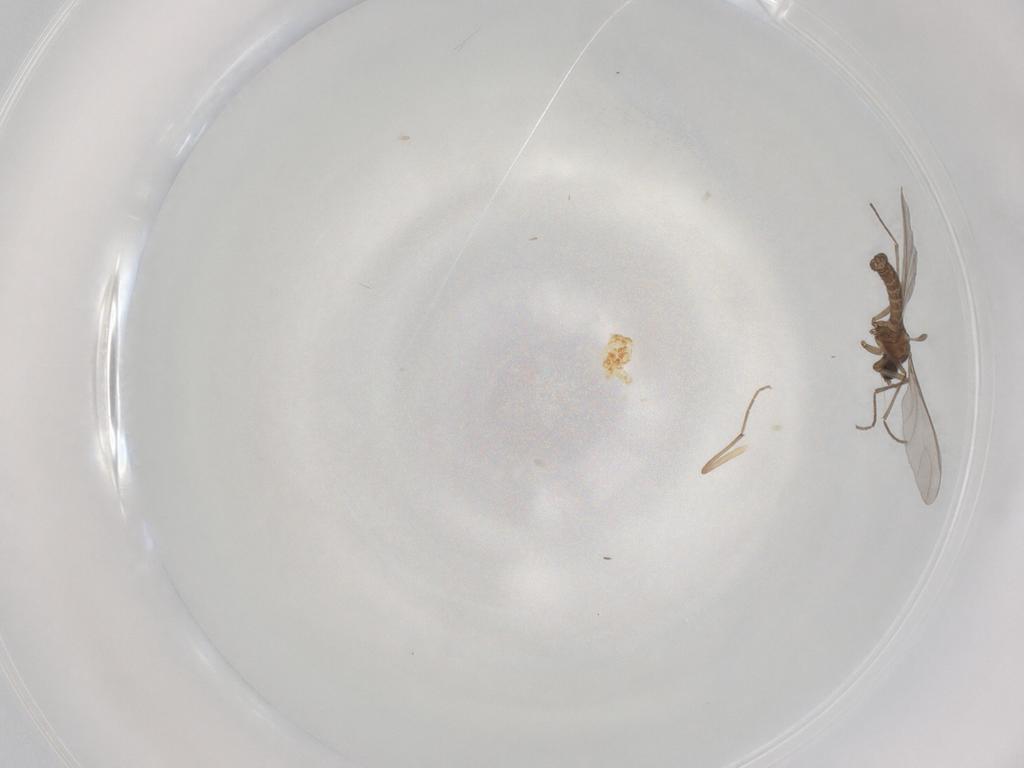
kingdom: Animalia
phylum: Arthropoda
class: Insecta
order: Diptera
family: Sciaridae
